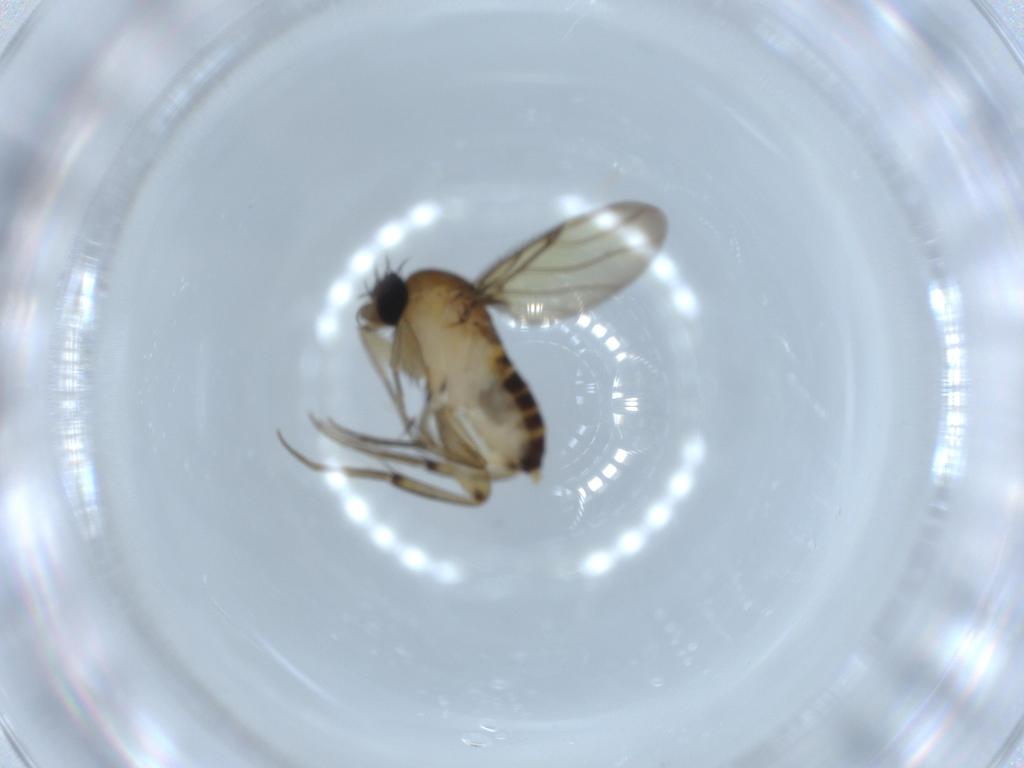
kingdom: Animalia
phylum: Arthropoda
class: Insecta
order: Diptera
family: Phoridae
